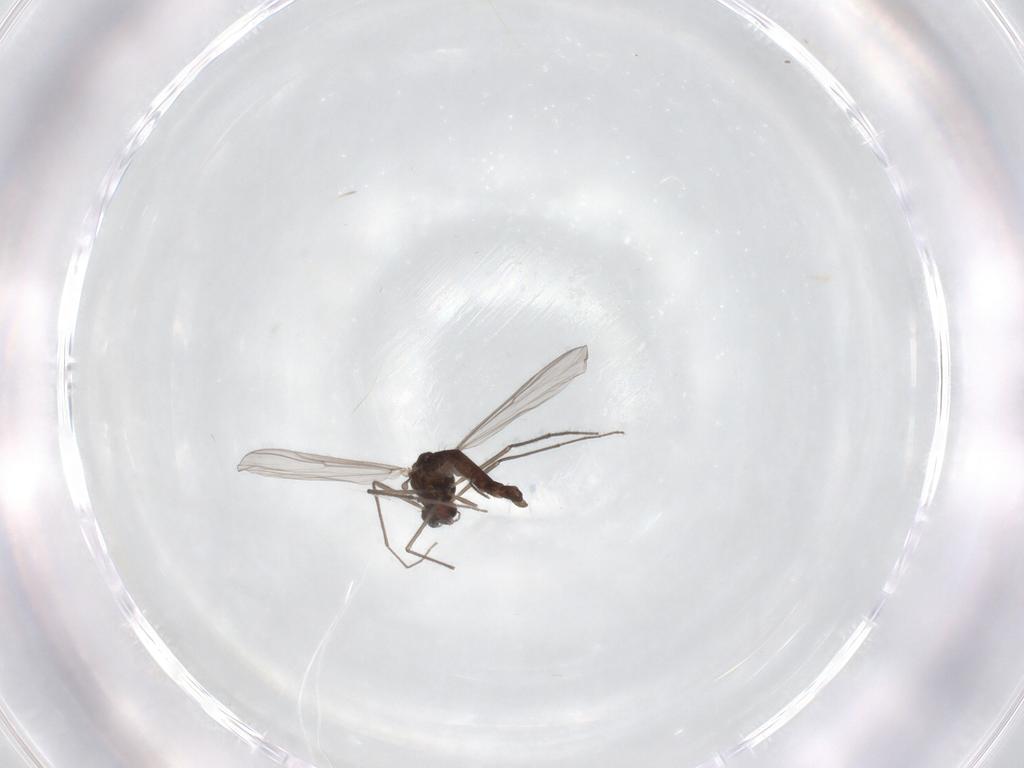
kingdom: Animalia
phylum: Arthropoda
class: Insecta
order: Diptera
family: Chironomidae
